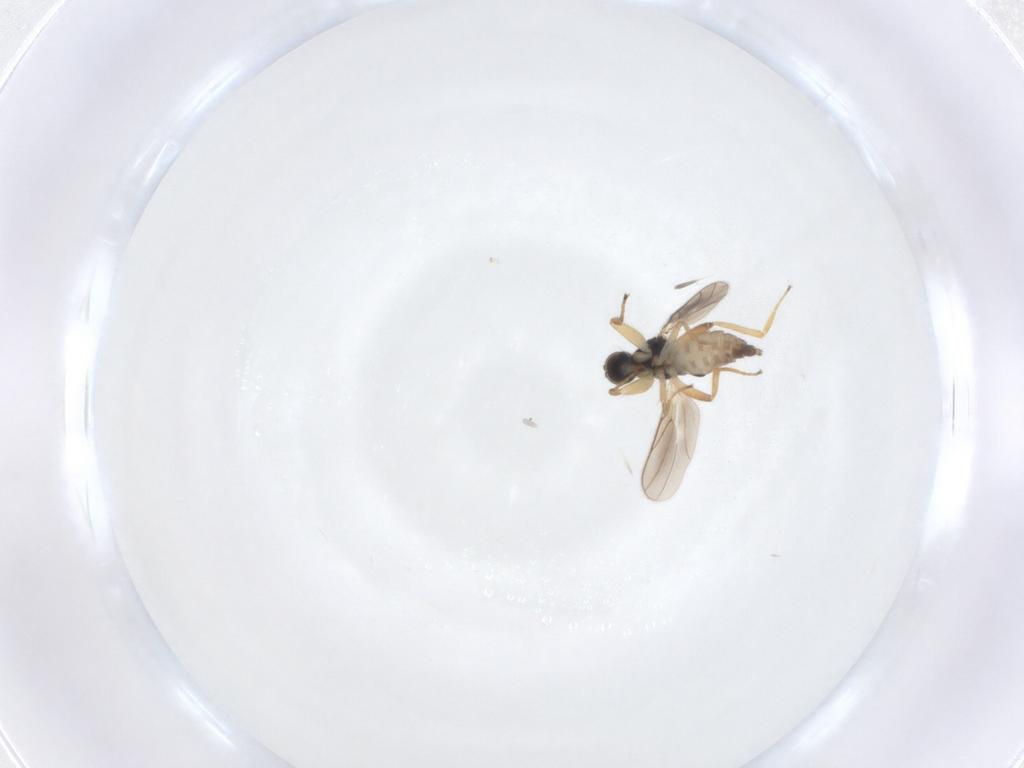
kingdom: Animalia
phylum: Arthropoda
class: Insecta
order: Diptera
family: Hybotidae
